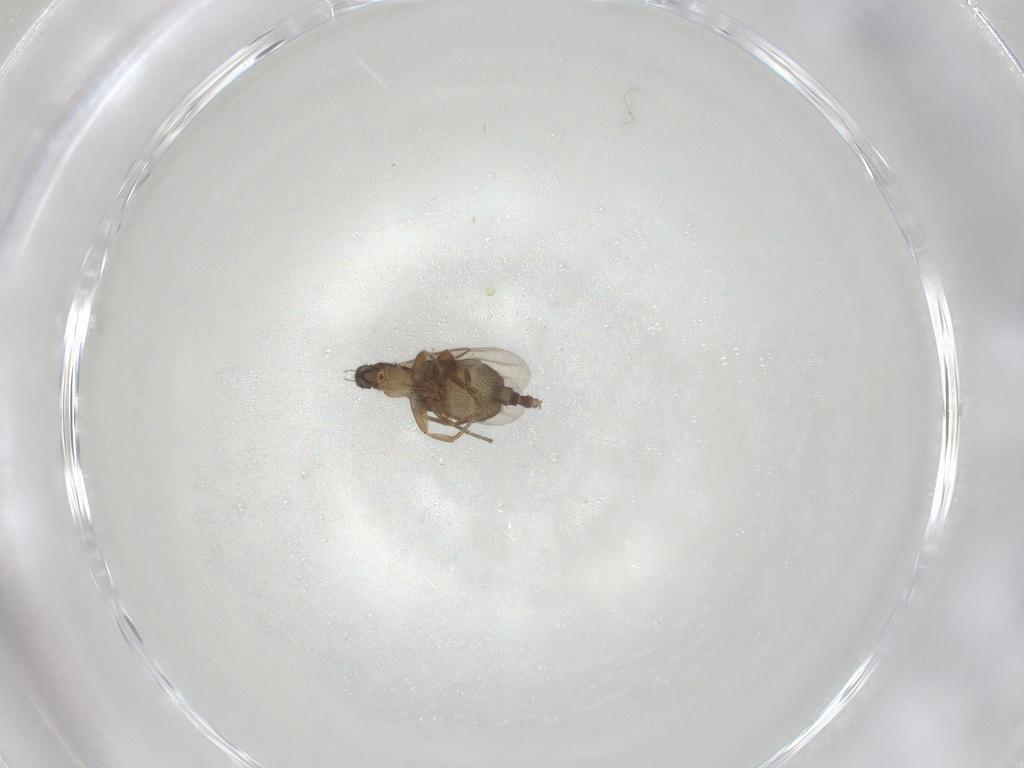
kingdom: Animalia
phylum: Arthropoda
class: Insecta
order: Diptera
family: Phoridae
